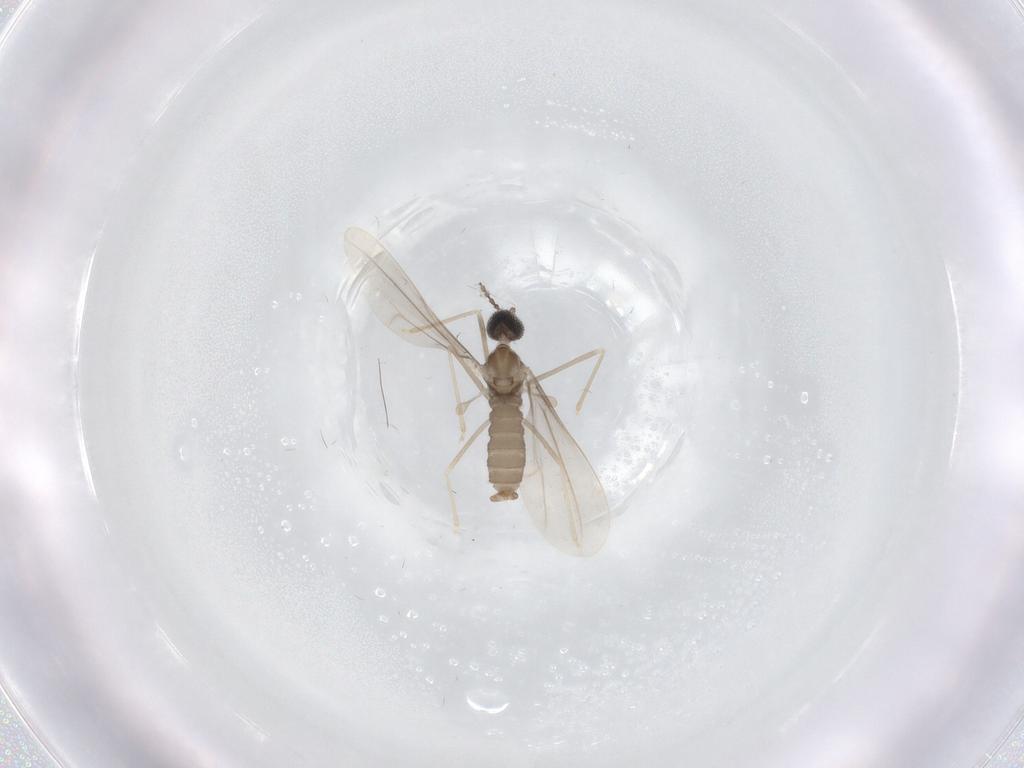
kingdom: Animalia
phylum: Arthropoda
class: Insecta
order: Diptera
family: Cecidomyiidae
